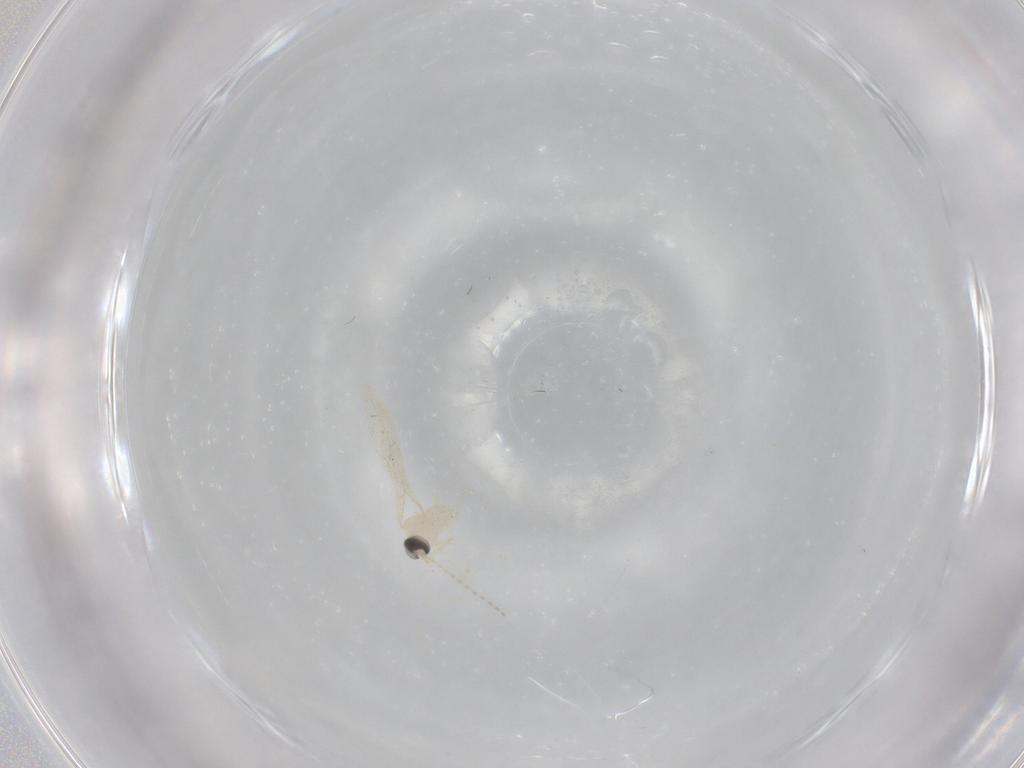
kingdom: Animalia
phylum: Arthropoda
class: Insecta
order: Diptera
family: Cecidomyiidae
